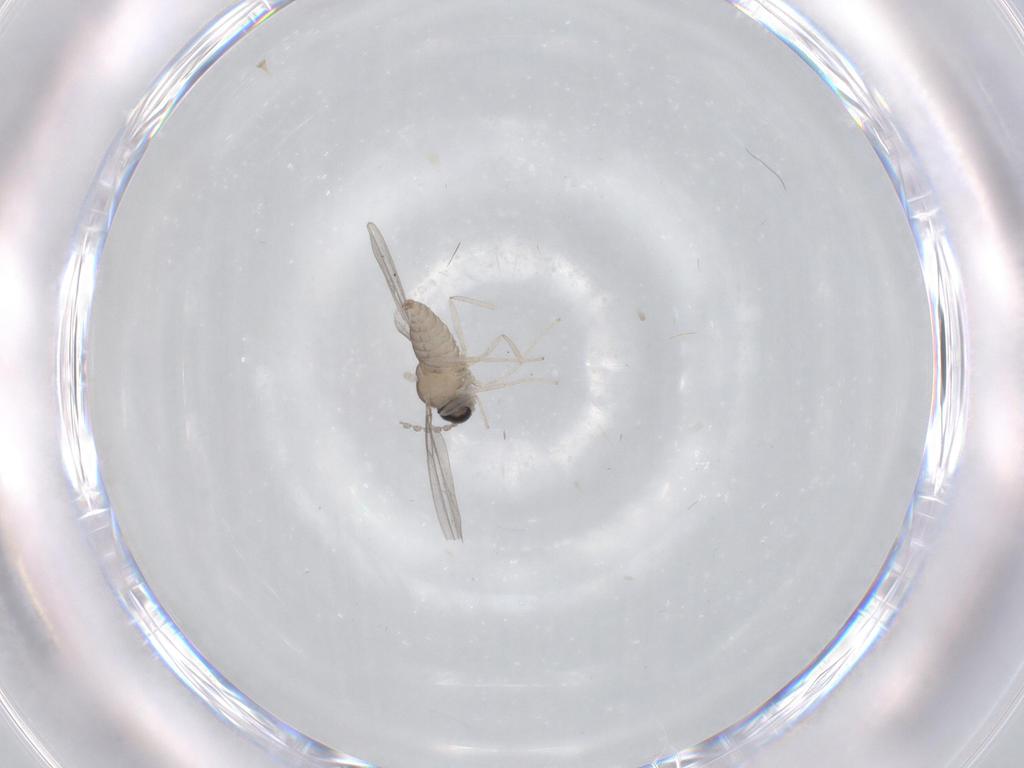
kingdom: Animalia
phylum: Arthropoda
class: Insecta
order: Diptera
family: Cecidomyiidae
